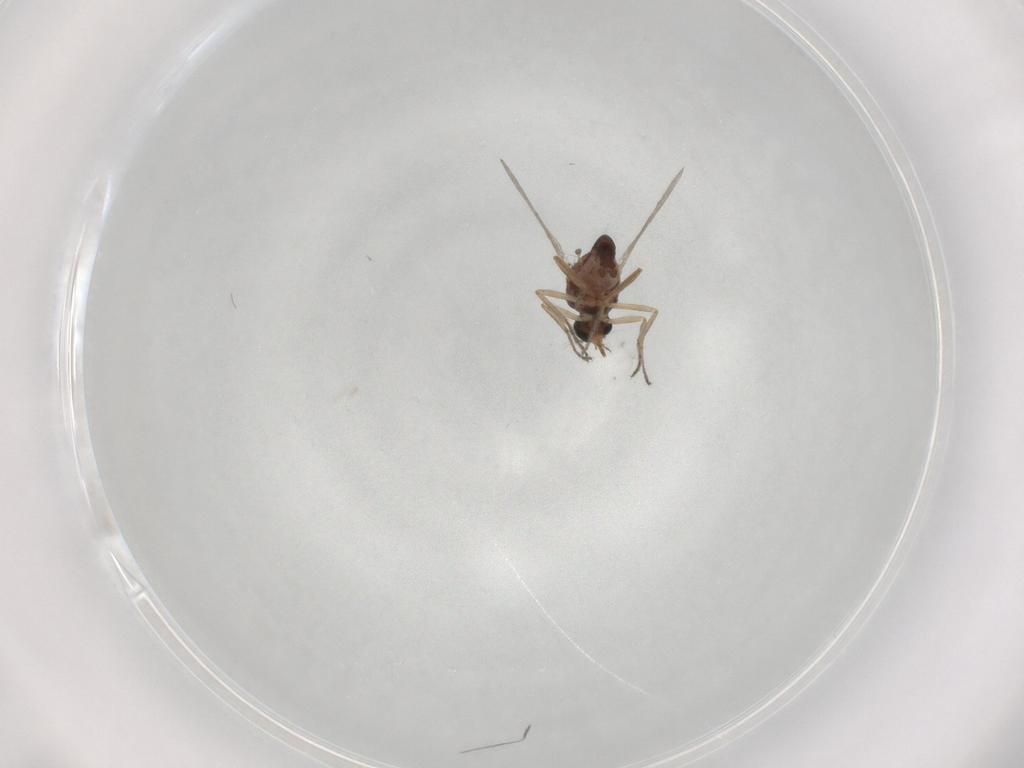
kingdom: Animalia
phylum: Arthropoda
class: Insecta
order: Diptera
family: Ceratopogonidae
